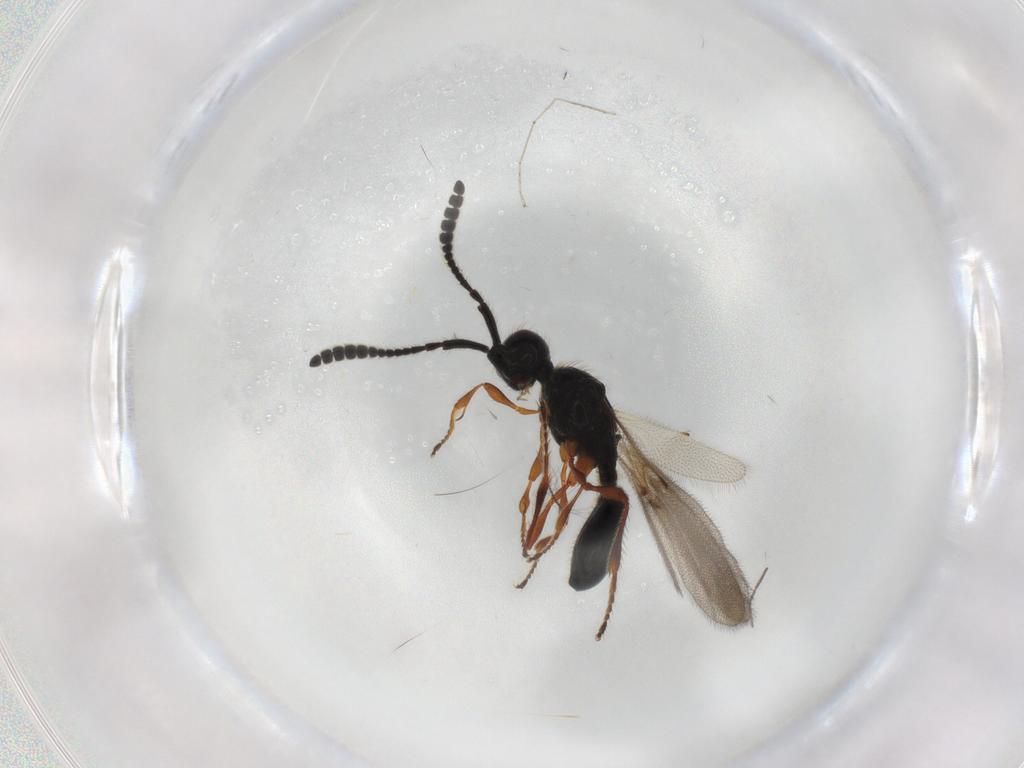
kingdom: Animalia
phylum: Arthropoda
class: Insecta
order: Hymenoptera
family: Diapriidae
